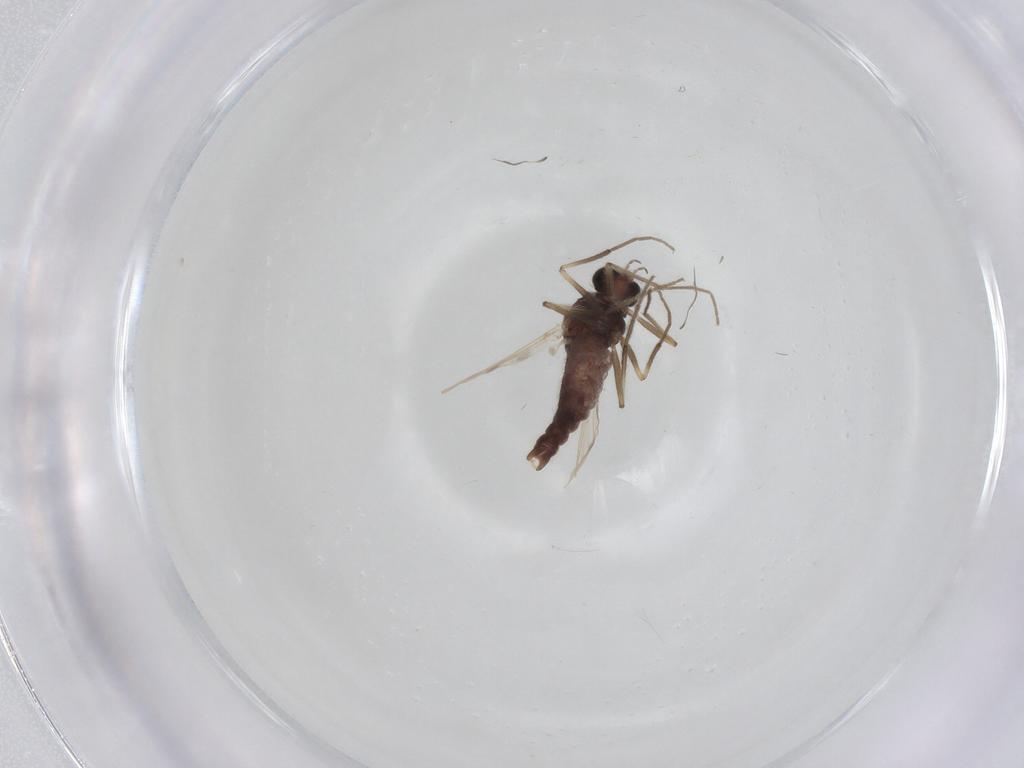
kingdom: Animalia
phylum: Arthropoda
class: Insecta
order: Diptera
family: Chironomidae
